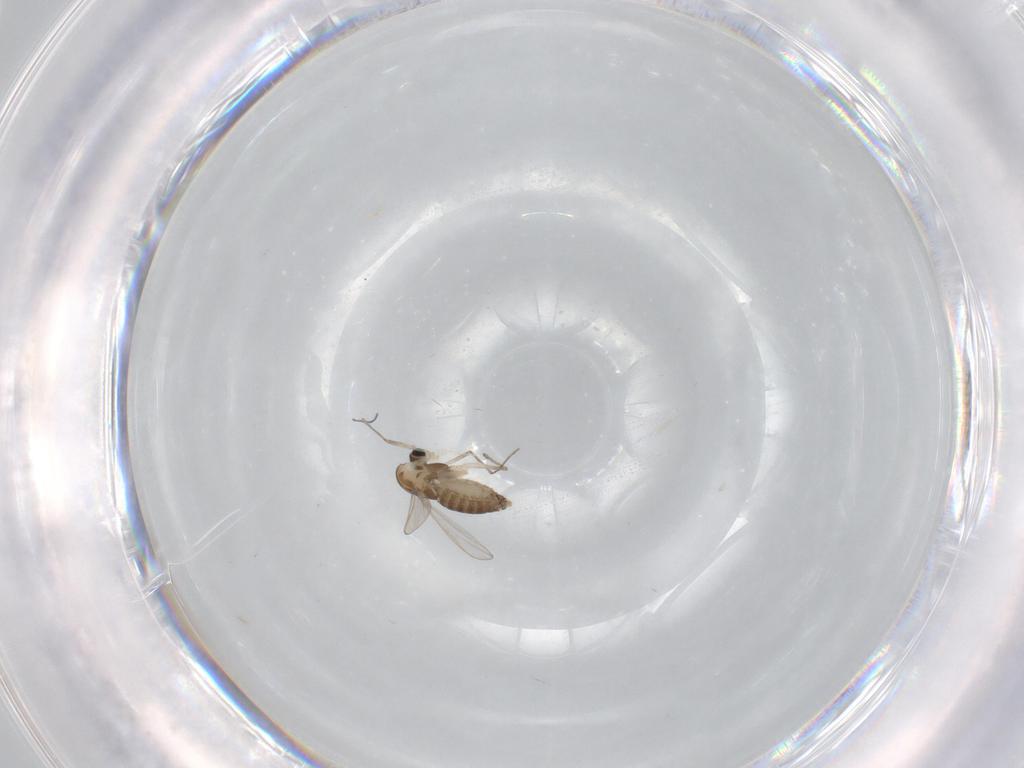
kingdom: Animalia
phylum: Arthropoda
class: Insecta
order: Diptera
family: Chironomidae
